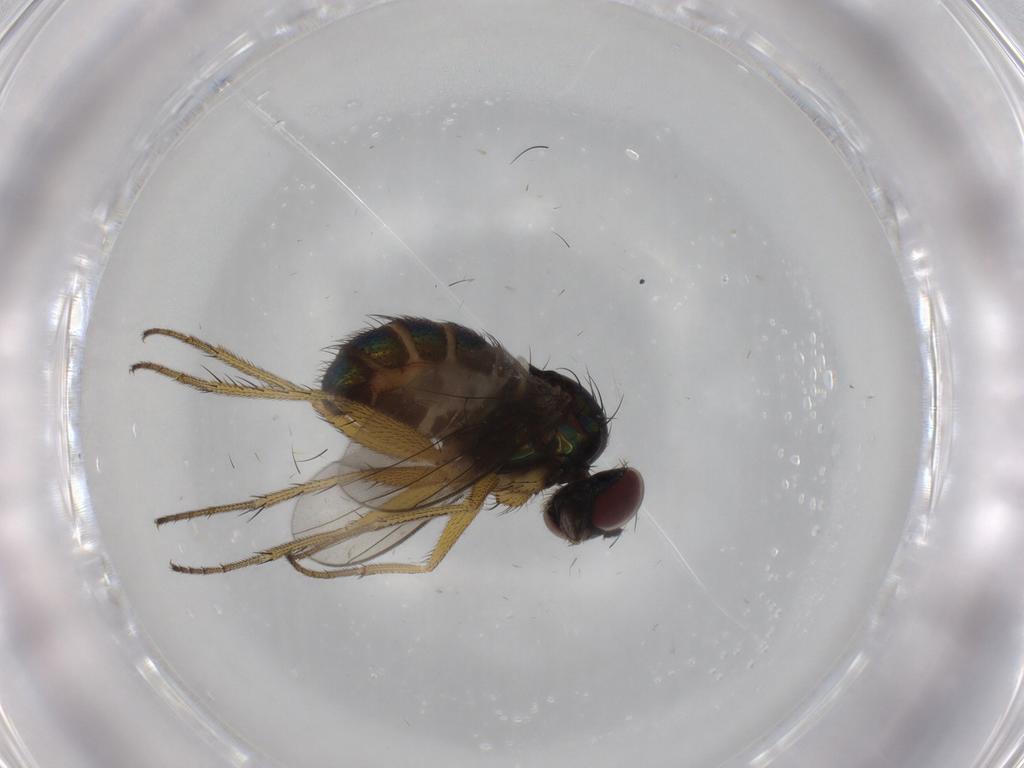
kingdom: Animalia
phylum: Arthropoda
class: Insecta
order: Diptera
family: Dolichopodidae
